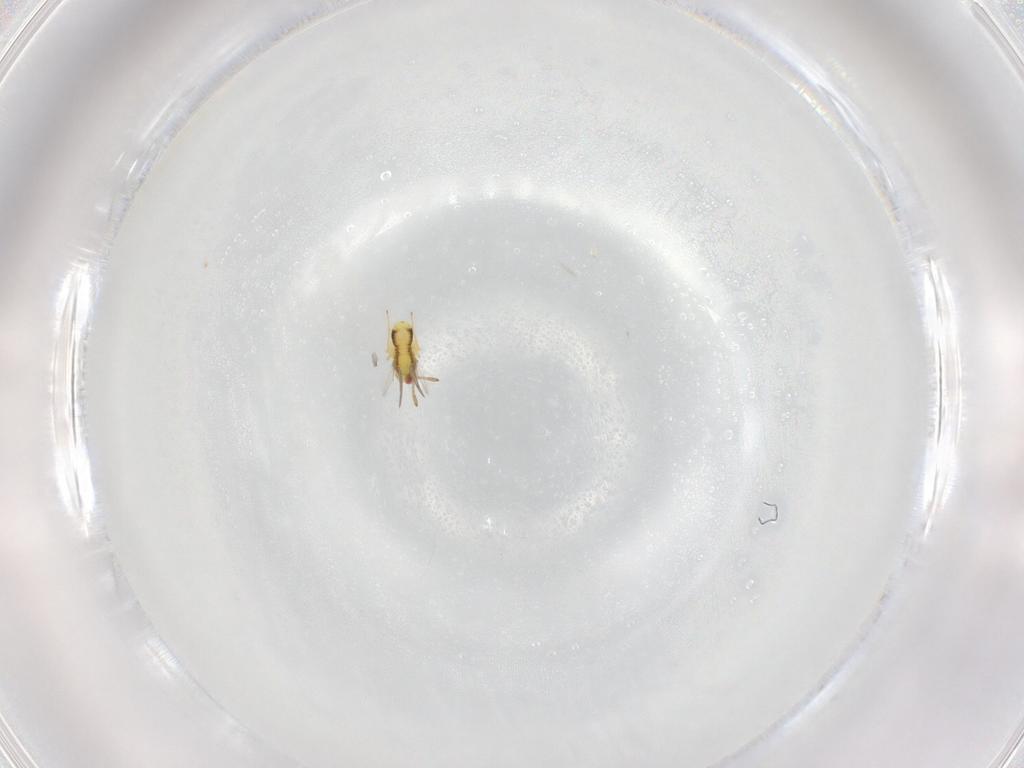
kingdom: Animalia
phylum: Arthropoda
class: Insecta
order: Hymenoptera
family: Aphelinidae
